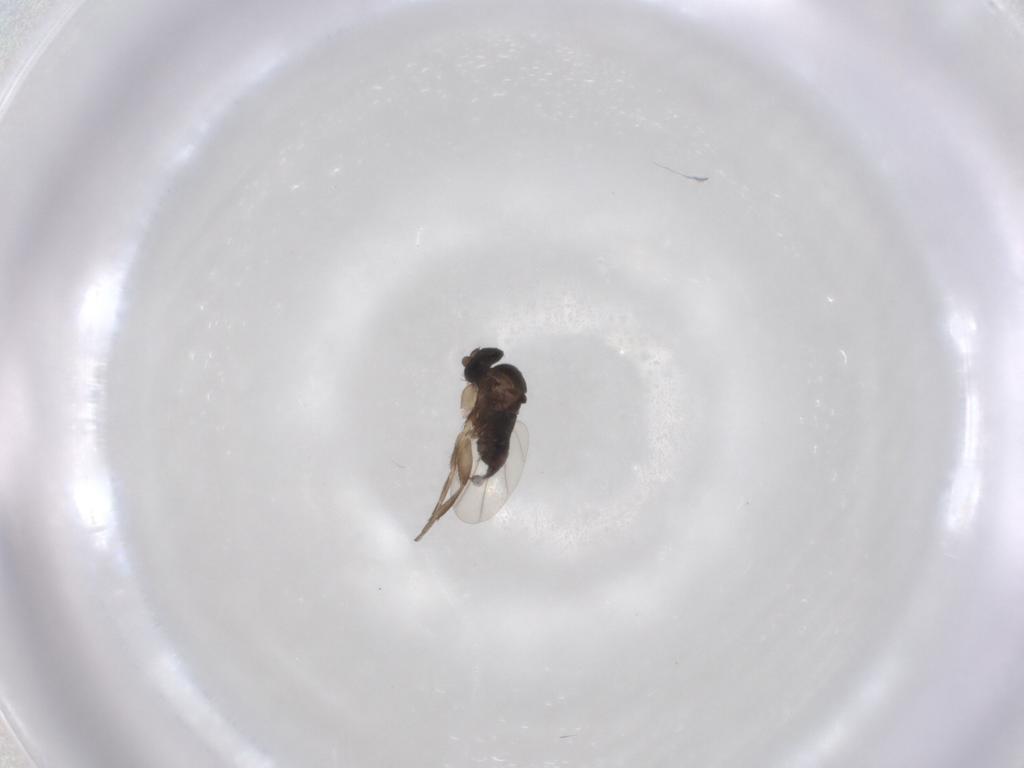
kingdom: Animalia
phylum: Arthropoda
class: Insecta
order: Diptera
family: Phoridae
